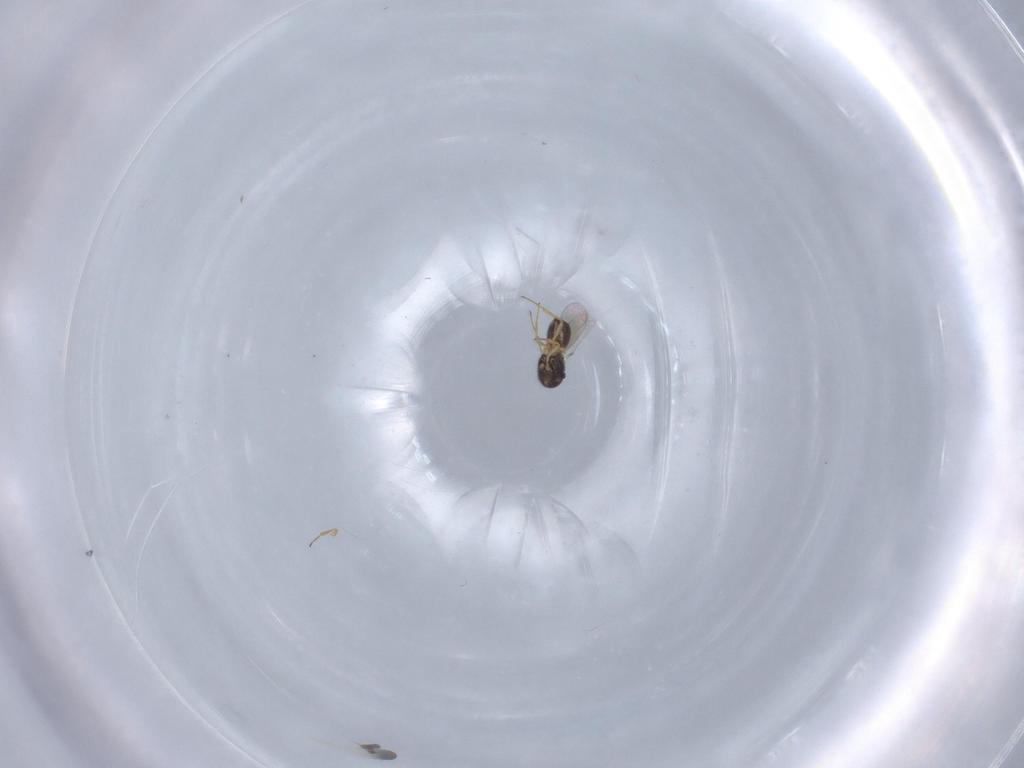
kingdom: Animalia
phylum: Arthropoda
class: Insecta
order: Hymenoptera
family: Scelionidae
